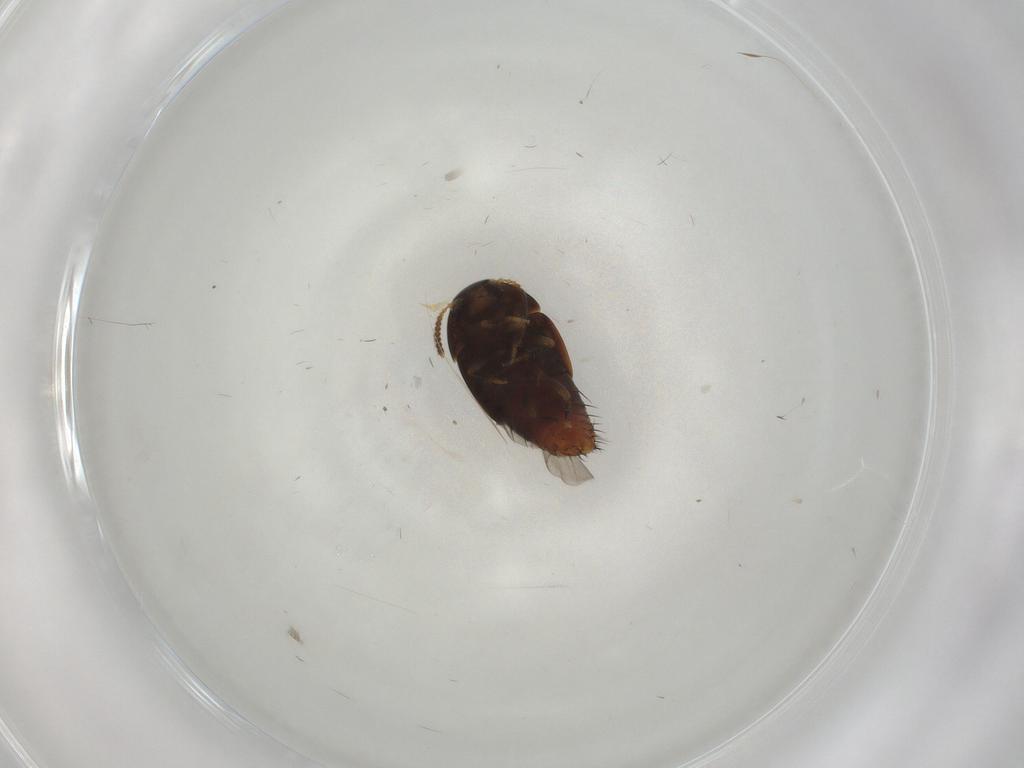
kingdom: Animalia
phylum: Arthropoda
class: Insecta
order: Coleoptera
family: Staphylinidae
